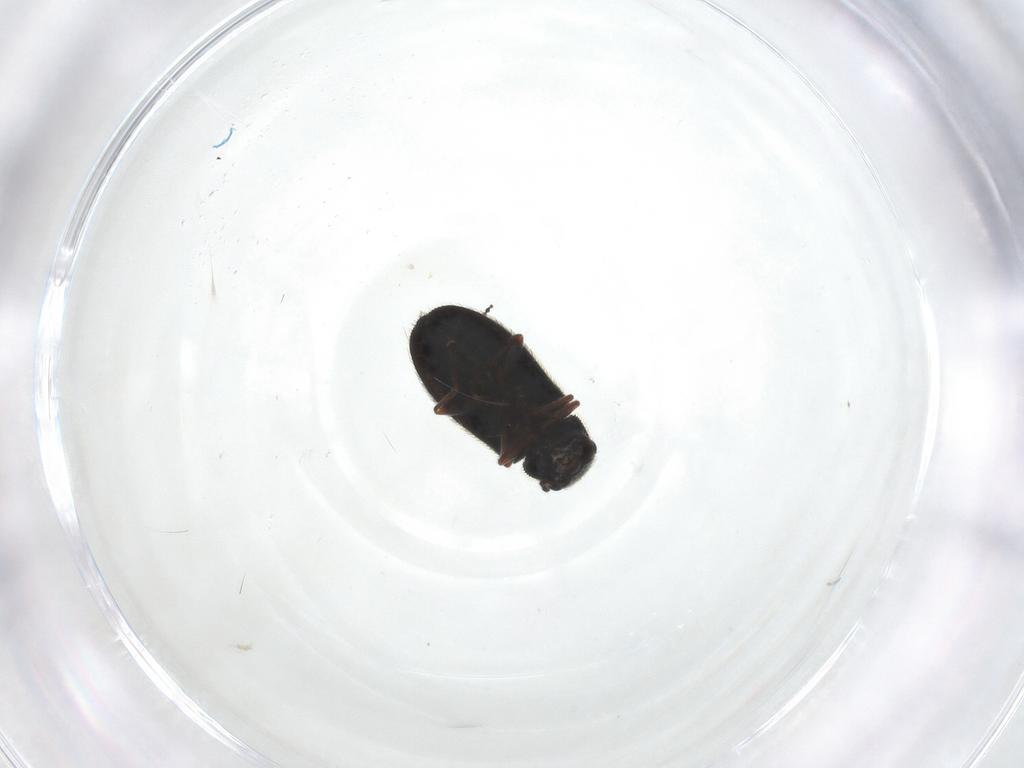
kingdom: Animalia
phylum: Arthropoda
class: Insecta
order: Coleoptera
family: Melyridae
